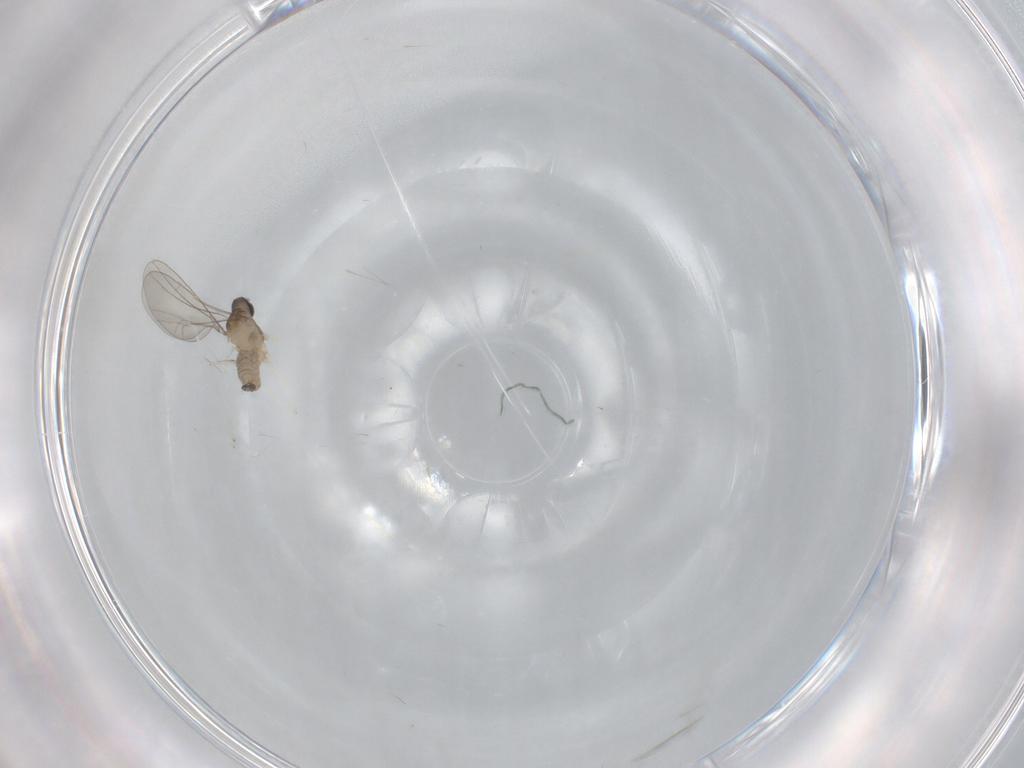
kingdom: Animalia
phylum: Arthropoda
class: Insecta
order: Diptera
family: Cecidomyiidae
